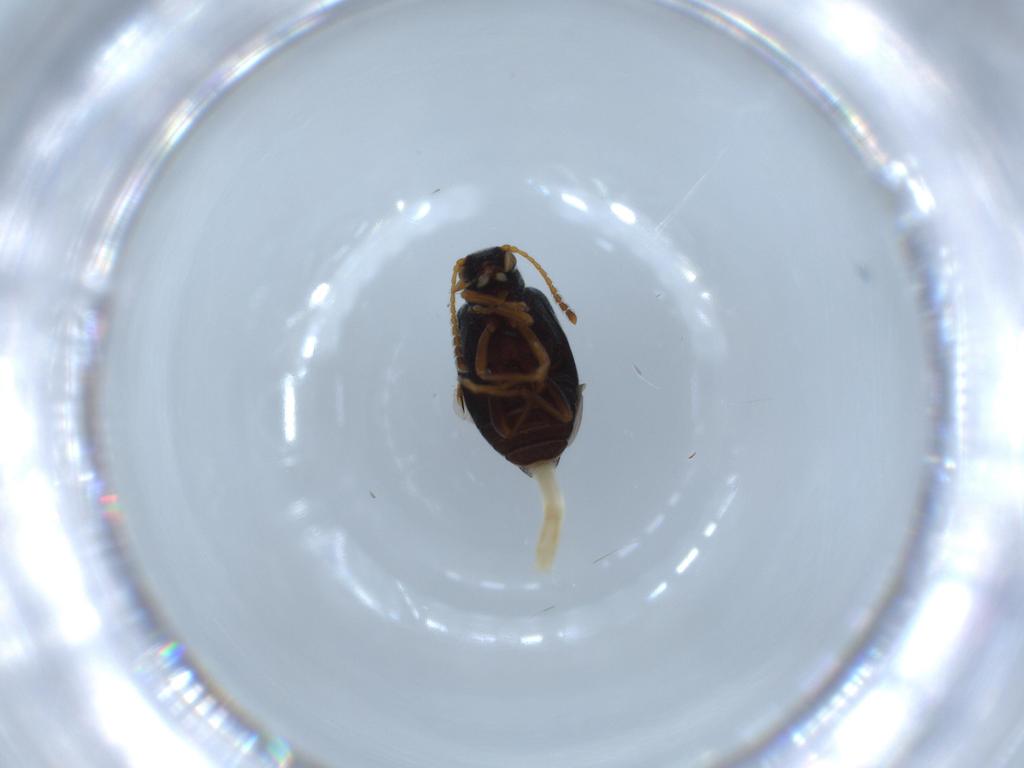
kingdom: Animalia
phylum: Arthropoda
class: Insecta
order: Coleoptera
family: Aderidae
